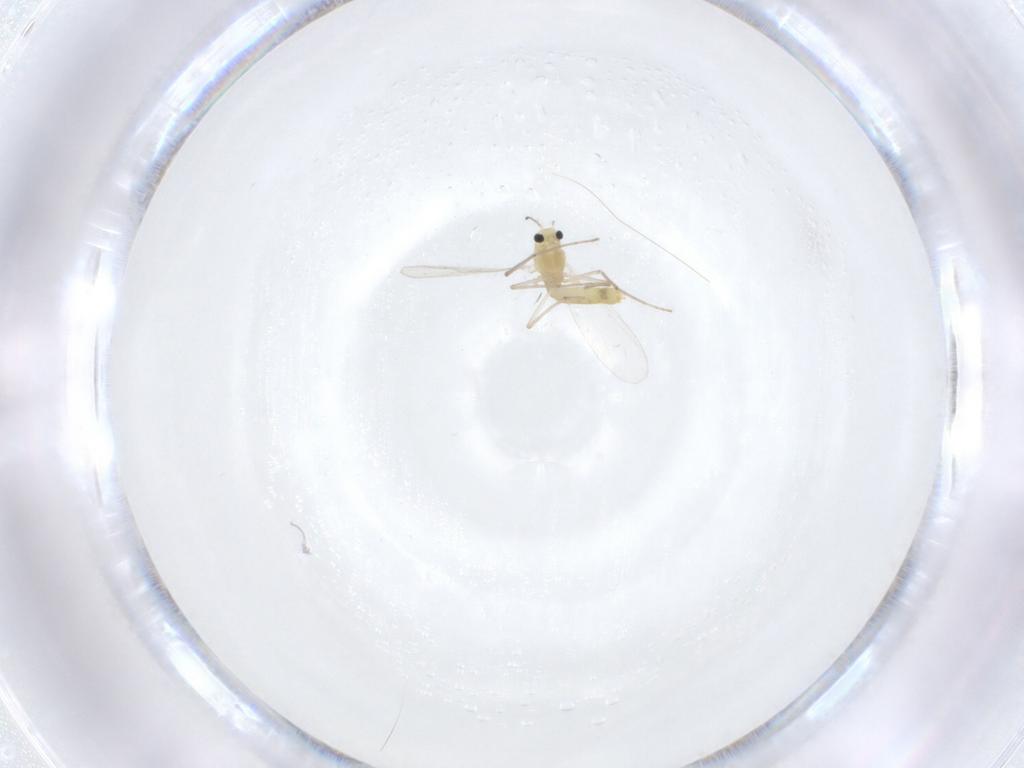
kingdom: Animalia
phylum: Arthropoda
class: Insecta
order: Diptera
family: Chironomidae
